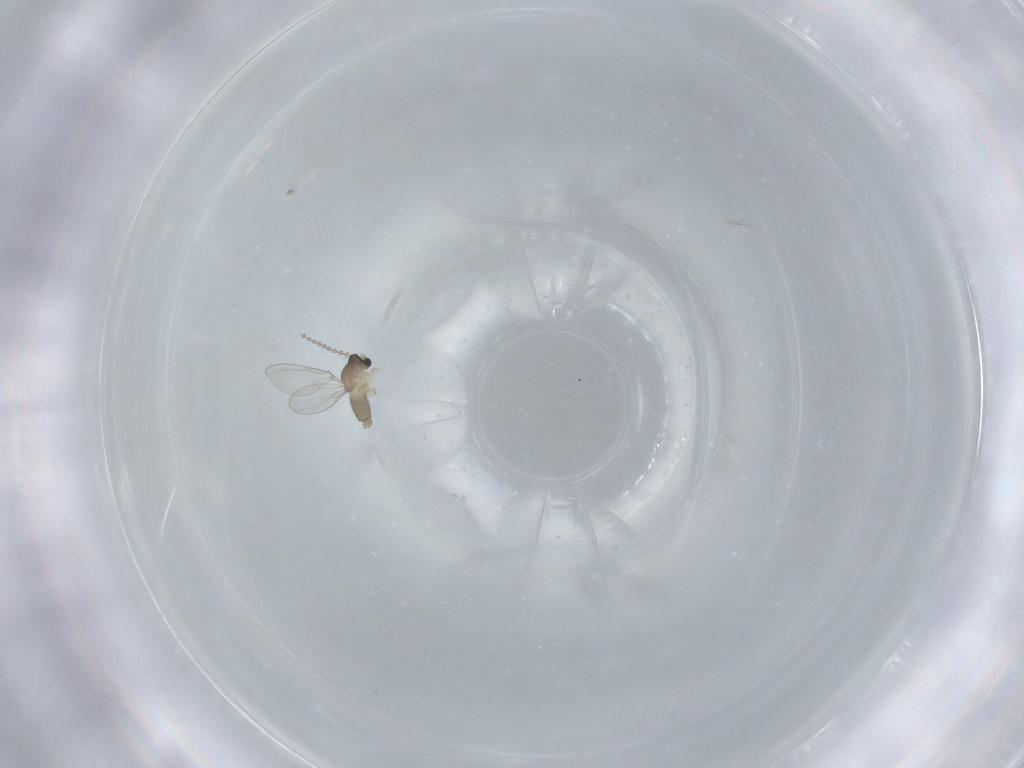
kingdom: Animalia
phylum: Arthropoda
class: Insecta
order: Diptera
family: Cecidomyiidae
